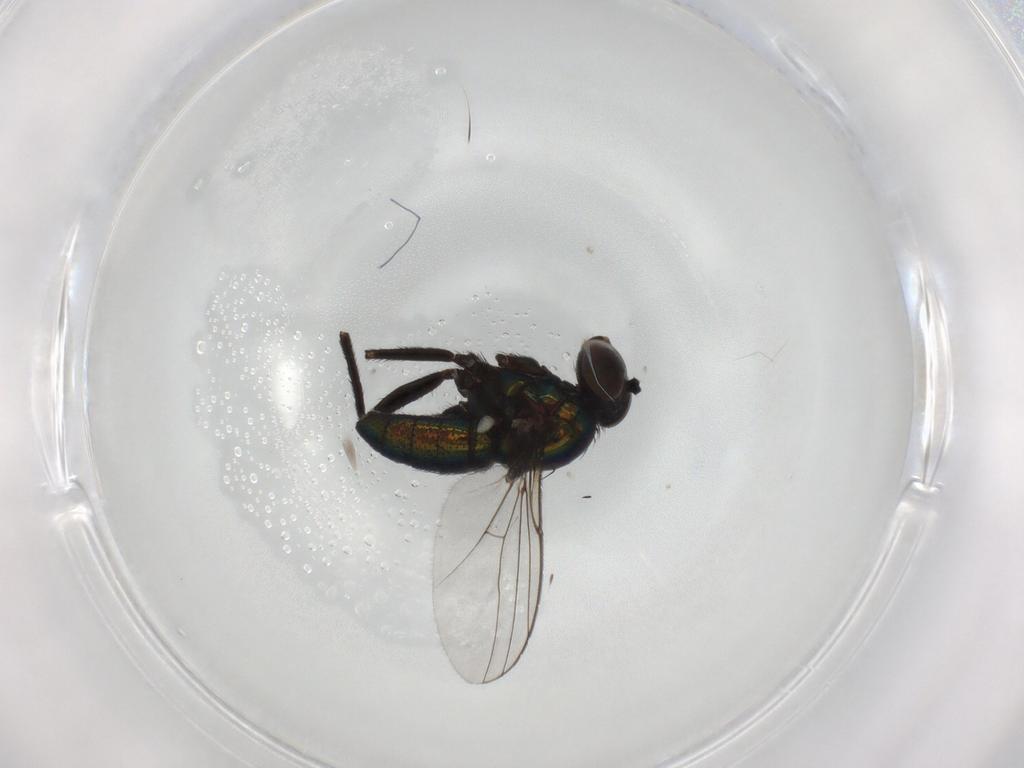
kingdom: Animalia
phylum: Arthropoda
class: Insecta
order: Diptera
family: Dolichopodidae
